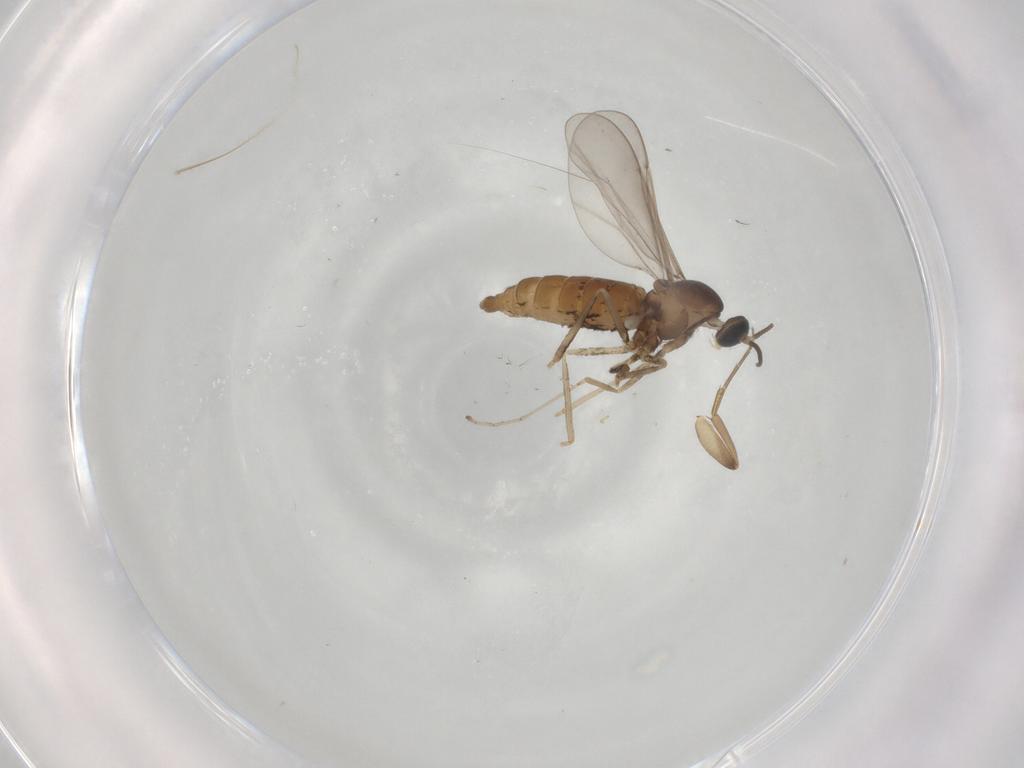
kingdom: Animalia
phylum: Arthropoda
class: Insecta
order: Diptera
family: Cecidomyiidae
